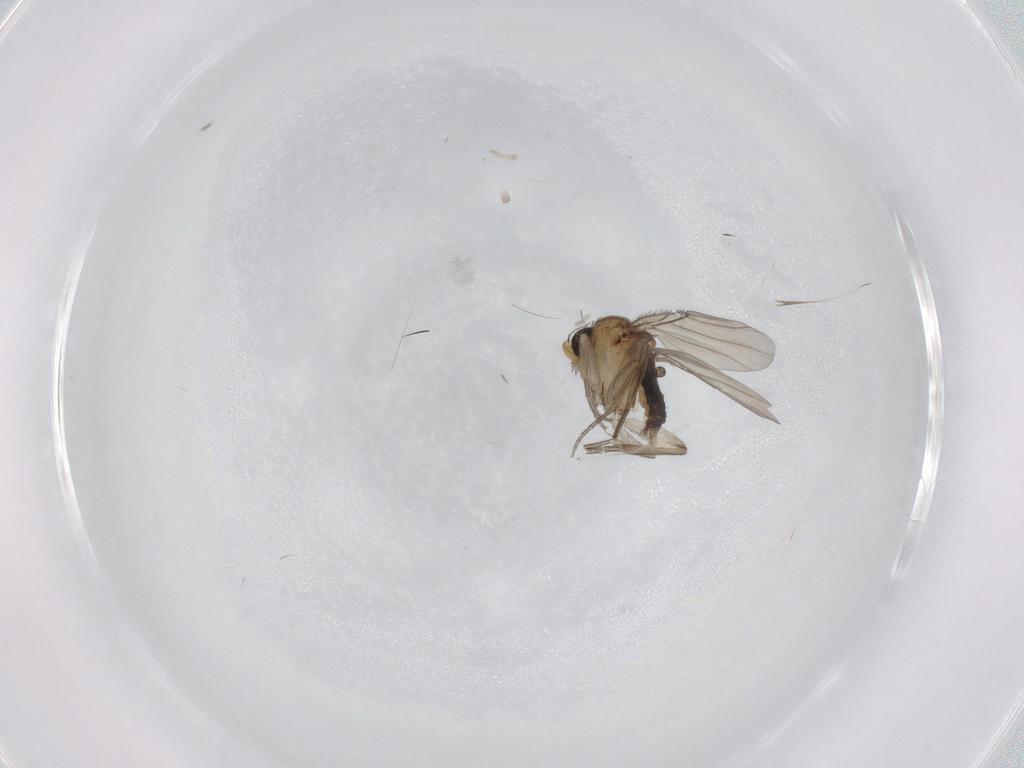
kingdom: Animalia
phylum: Arthropoda
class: Insecta
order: Diptera
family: Phoridae
